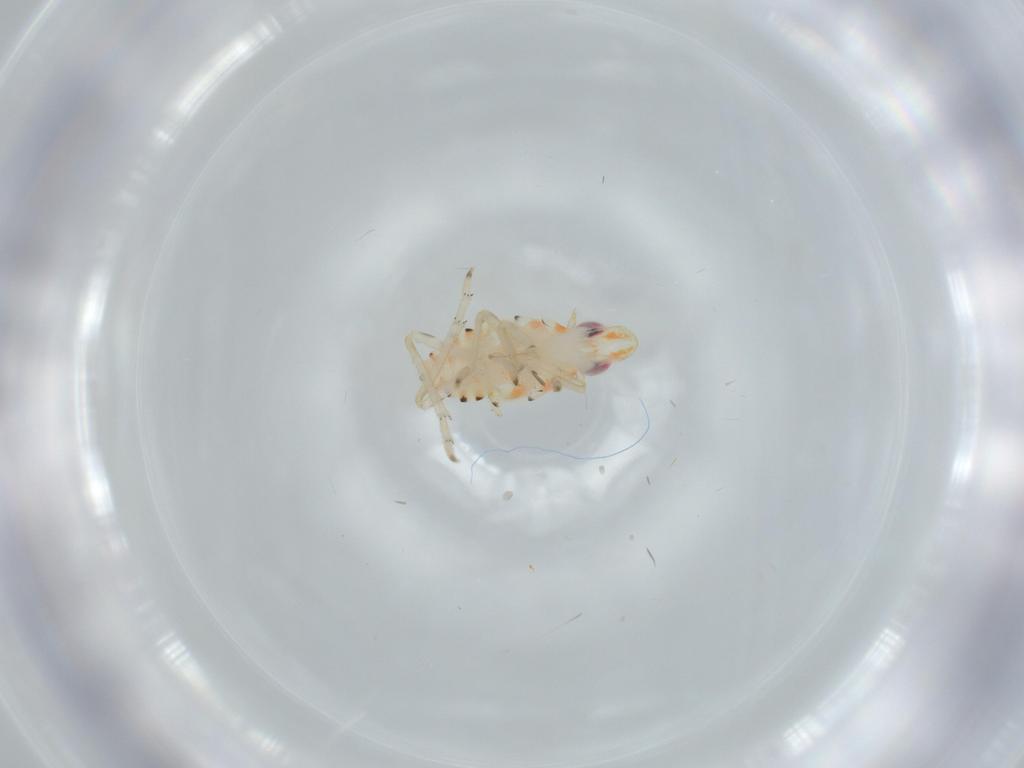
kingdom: Animalia
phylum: Arthropoda
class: Insecta
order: Hemiptera
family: Tropiduchidae
